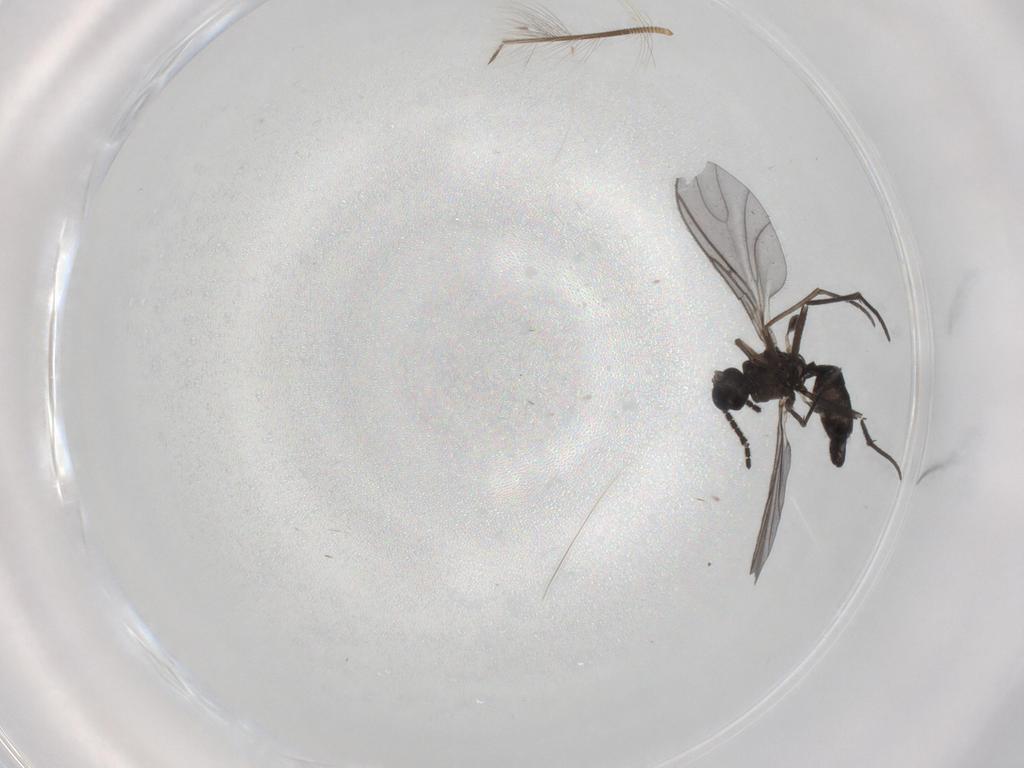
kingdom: Animalia
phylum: Arthropoda
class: Insecta
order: Diptera
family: Sciaridae
